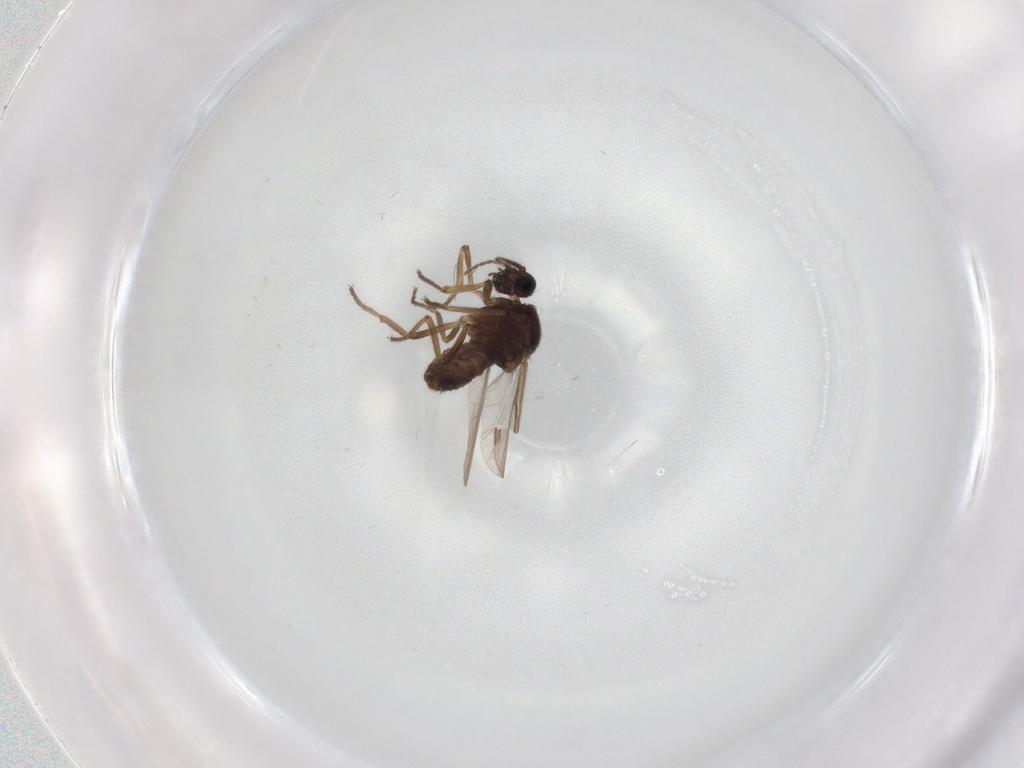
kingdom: Animalia
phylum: Arthropoda
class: Insecta
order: Diptera
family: Ceratopogonidae
